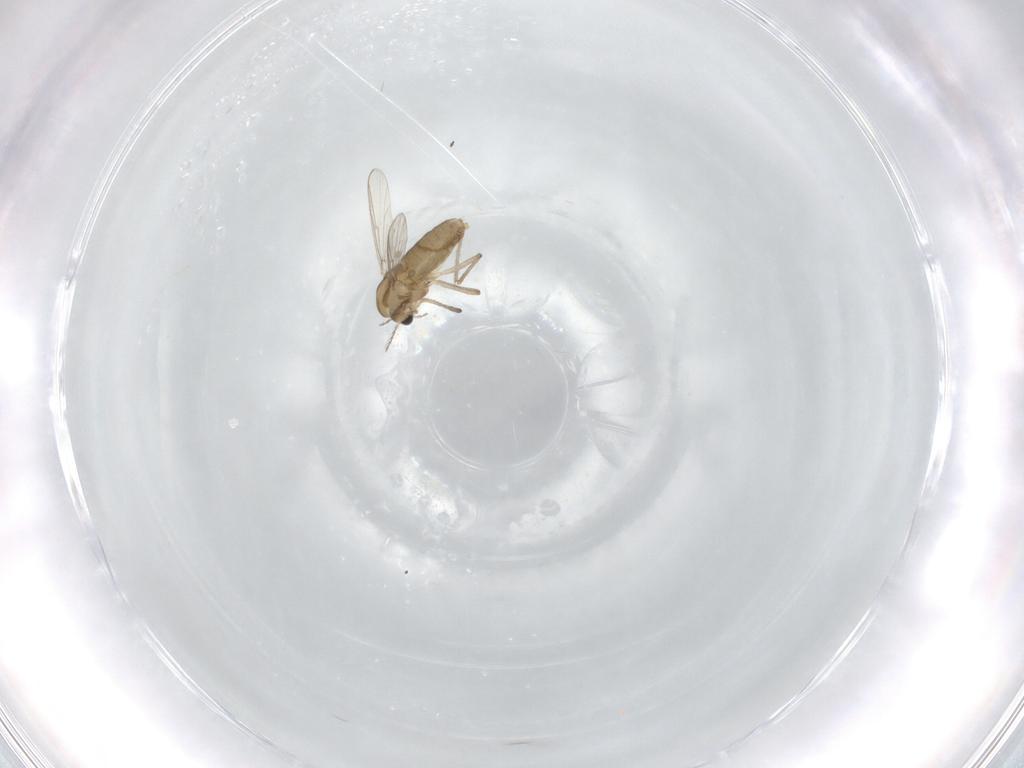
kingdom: Animalia
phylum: Arthropoda
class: Insecta
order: Diptera
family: Chironomidae
